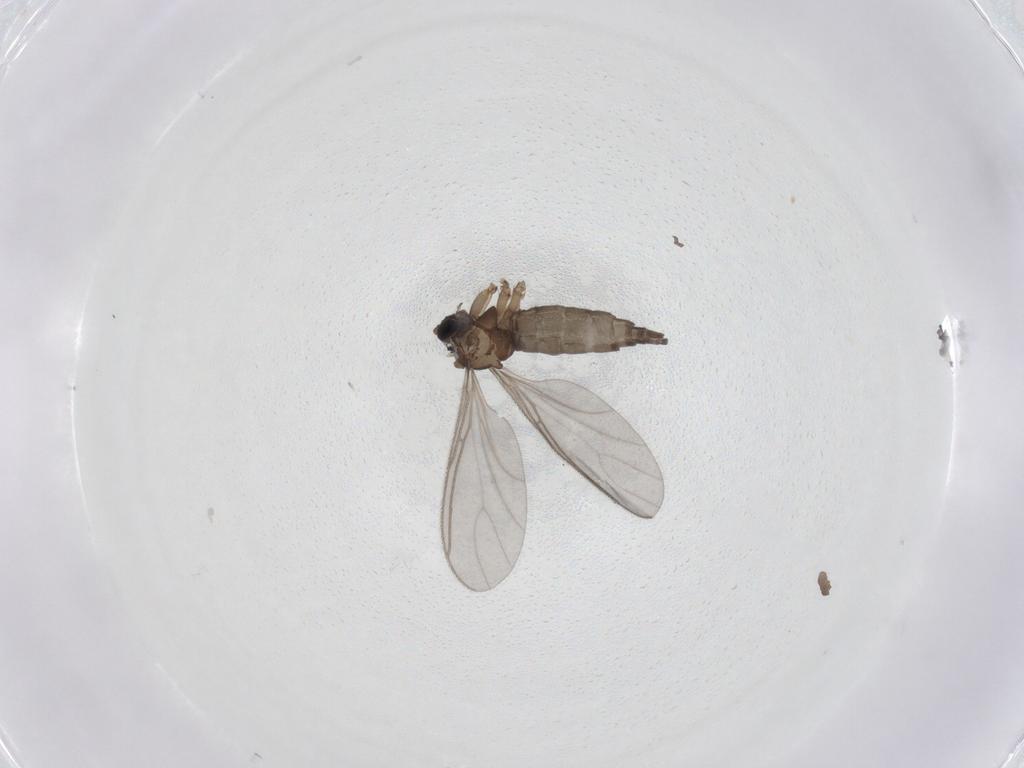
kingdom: Animalia
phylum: Arthropoda
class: Insecta
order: Diptera
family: Sciaridae
